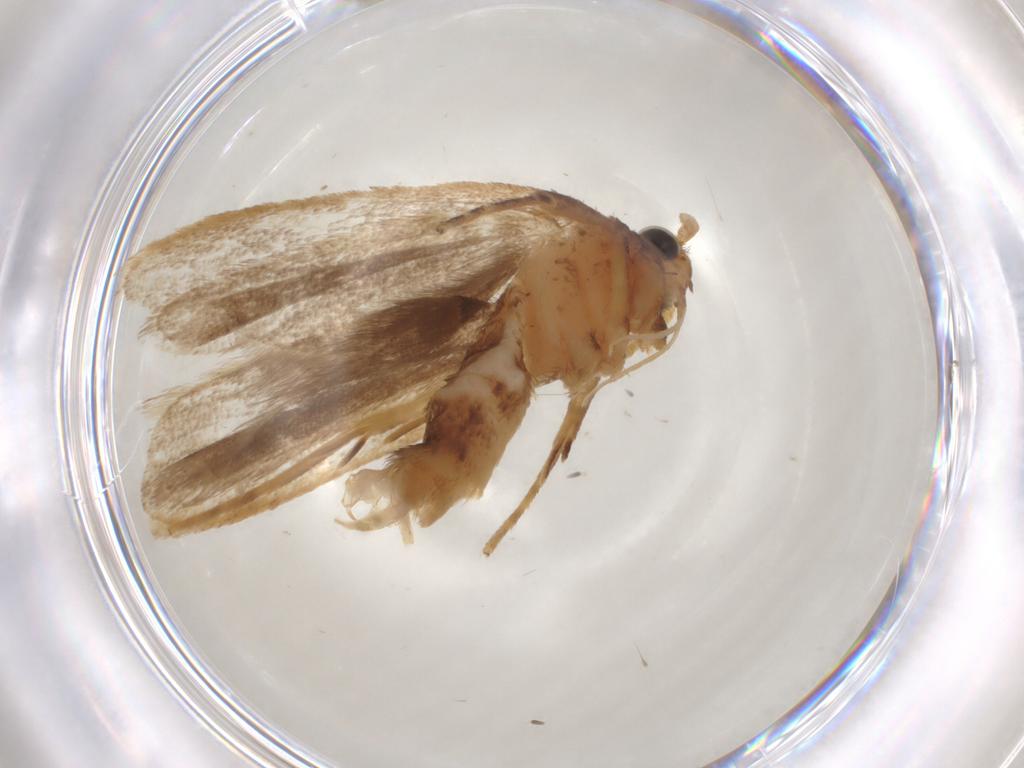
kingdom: Animalia
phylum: Arthropoda
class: Insecta
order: Lepidoptera
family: Lecithoceridae
